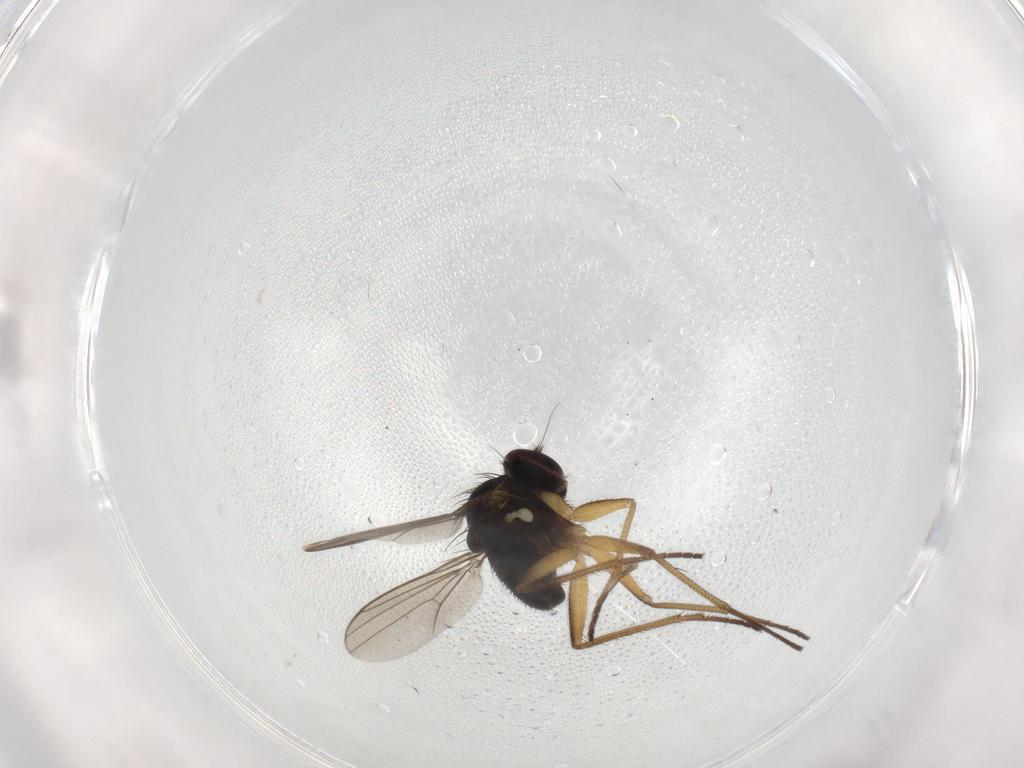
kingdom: Animalia
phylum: Arthropoda
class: Insecta
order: Diptera
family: Dolichopodidae
